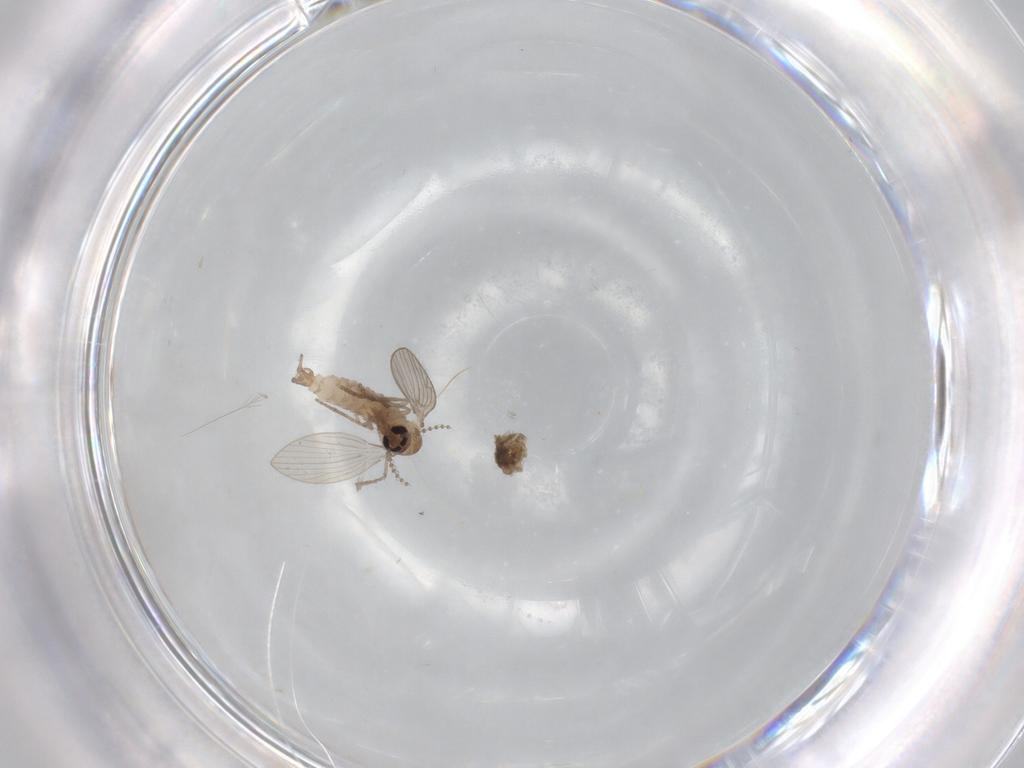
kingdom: Animalia
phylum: Arthropoda
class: Insecta
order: Diptera
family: Psychodidae
